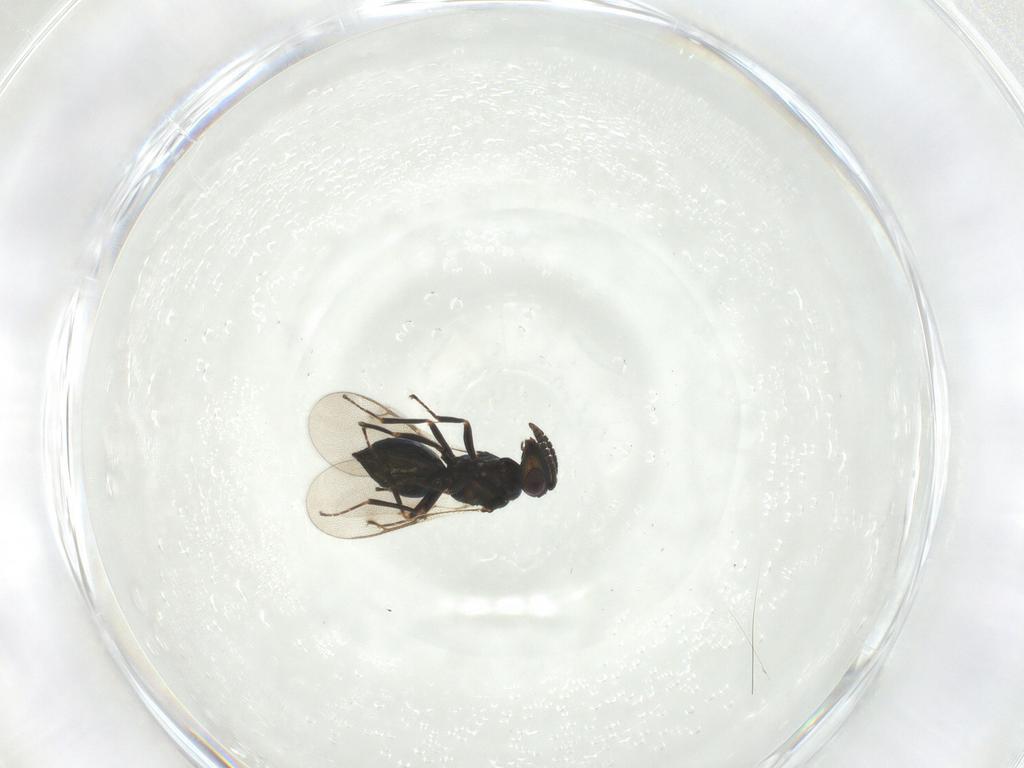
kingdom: Animalia
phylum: Arthropoda
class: Insecta
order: Hymenoptera
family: Pteromalidae
